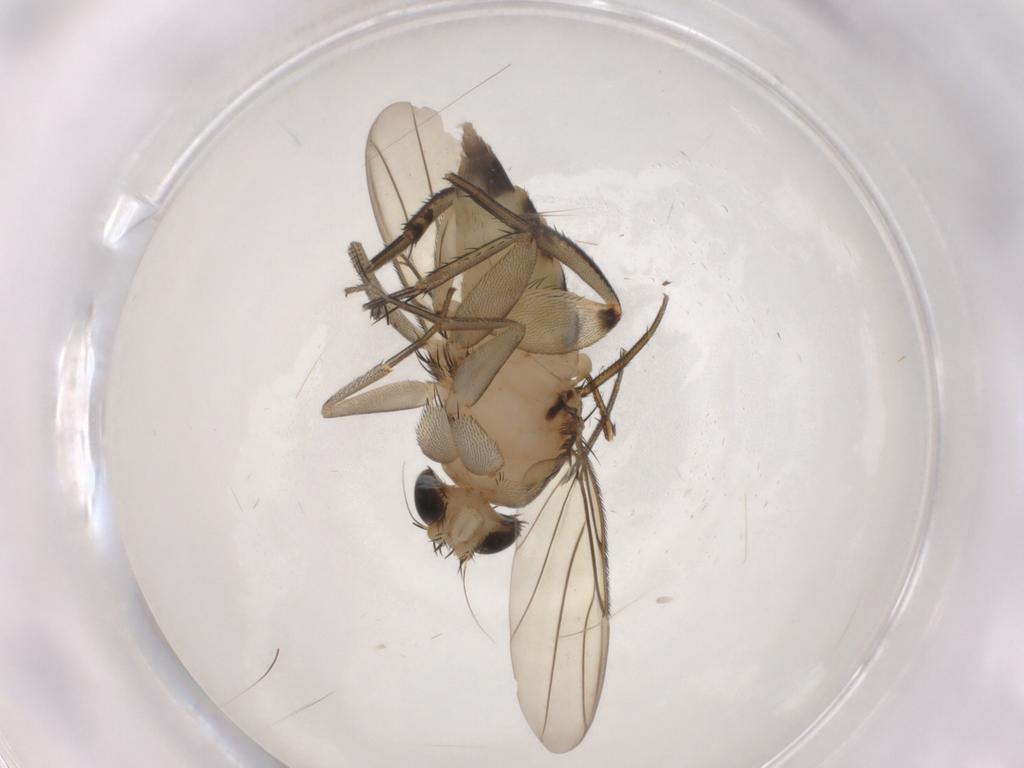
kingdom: Animalia
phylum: Arthropoda
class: Insecta
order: Diptera
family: Phoridae
